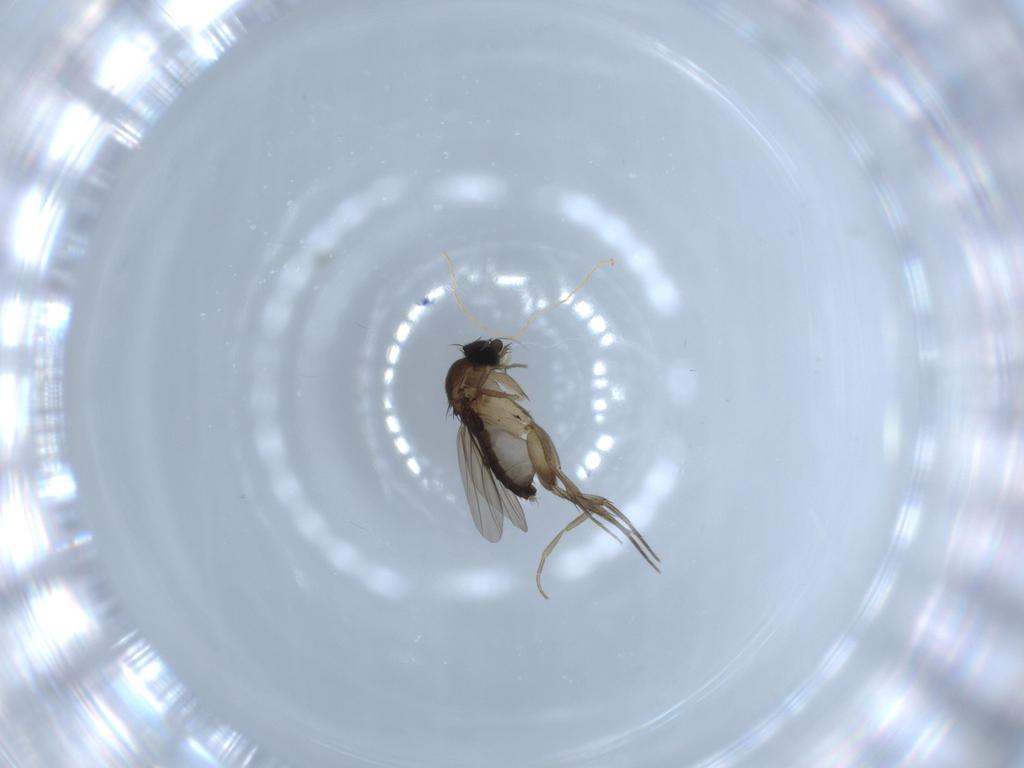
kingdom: Animalia
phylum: Arthropoda
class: Insecta
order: Diptera
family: Phoridae
